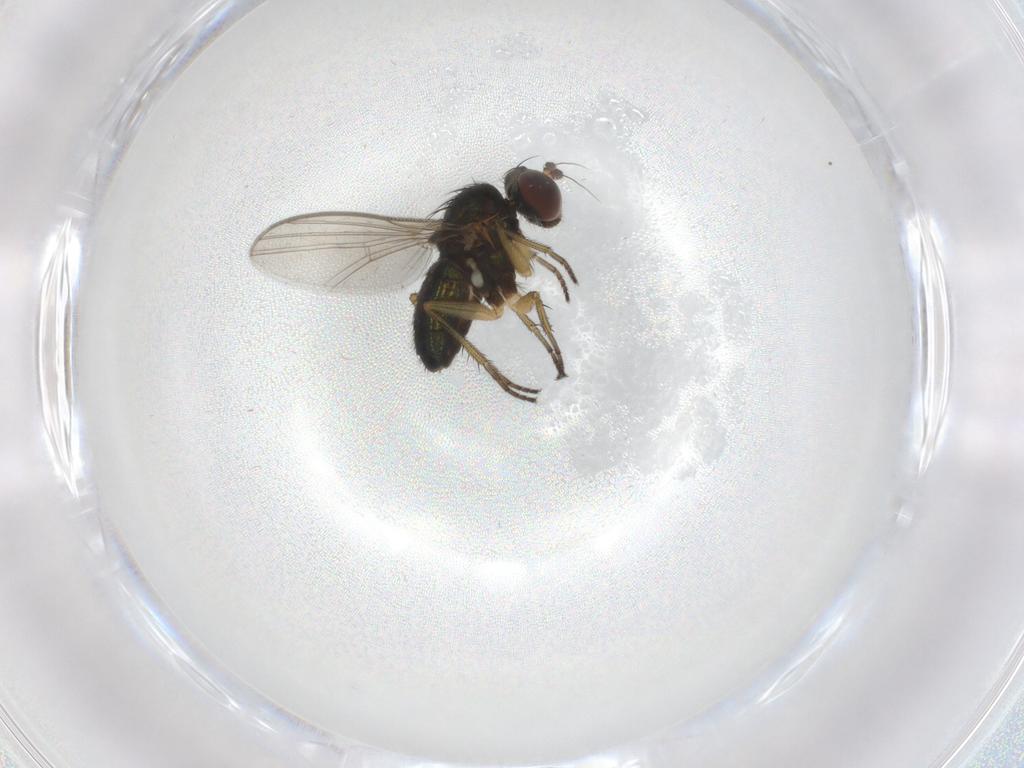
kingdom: Animalia
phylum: Arthropoda
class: Insecta
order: Diptera
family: Dolichopodidae
